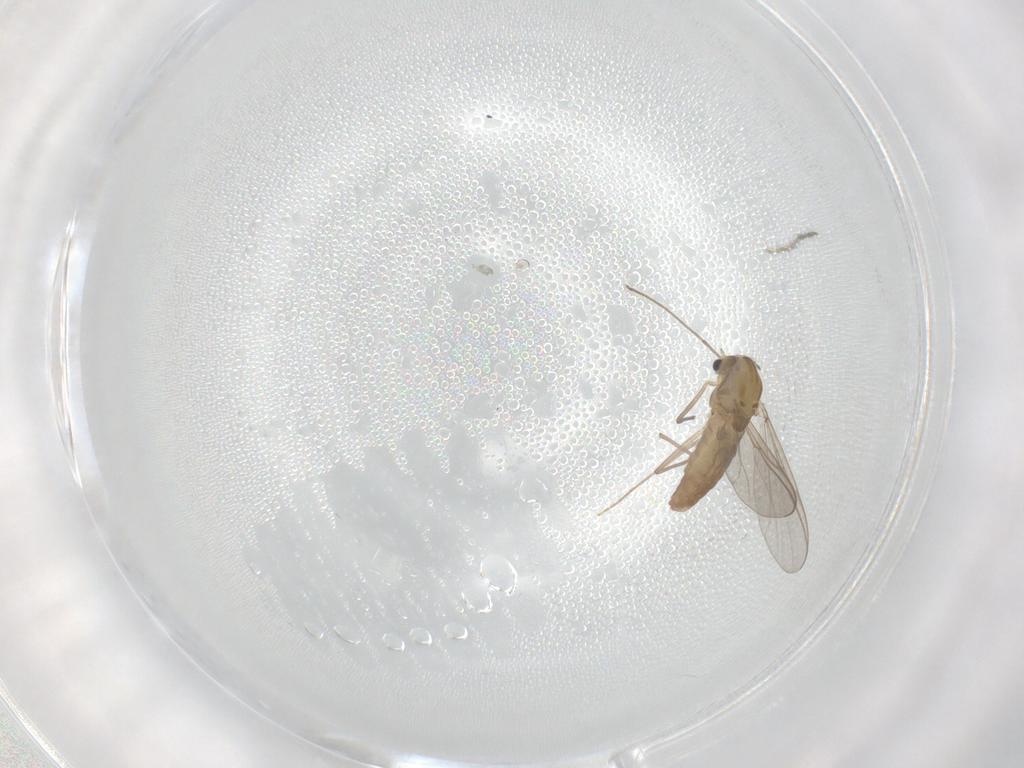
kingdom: Animalia
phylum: Arthropoda
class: Insecta
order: Diptera
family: Chironomidae
